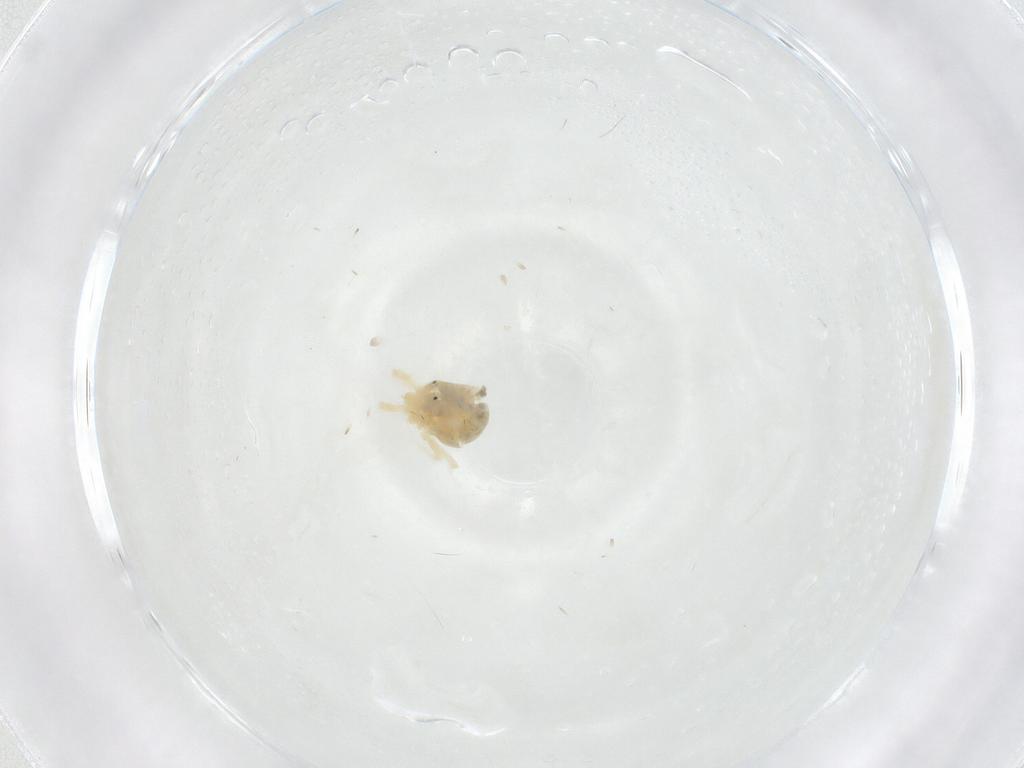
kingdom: Animalia
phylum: Arthropoda
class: Arachnida
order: Trombidiformes
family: Anystidae
